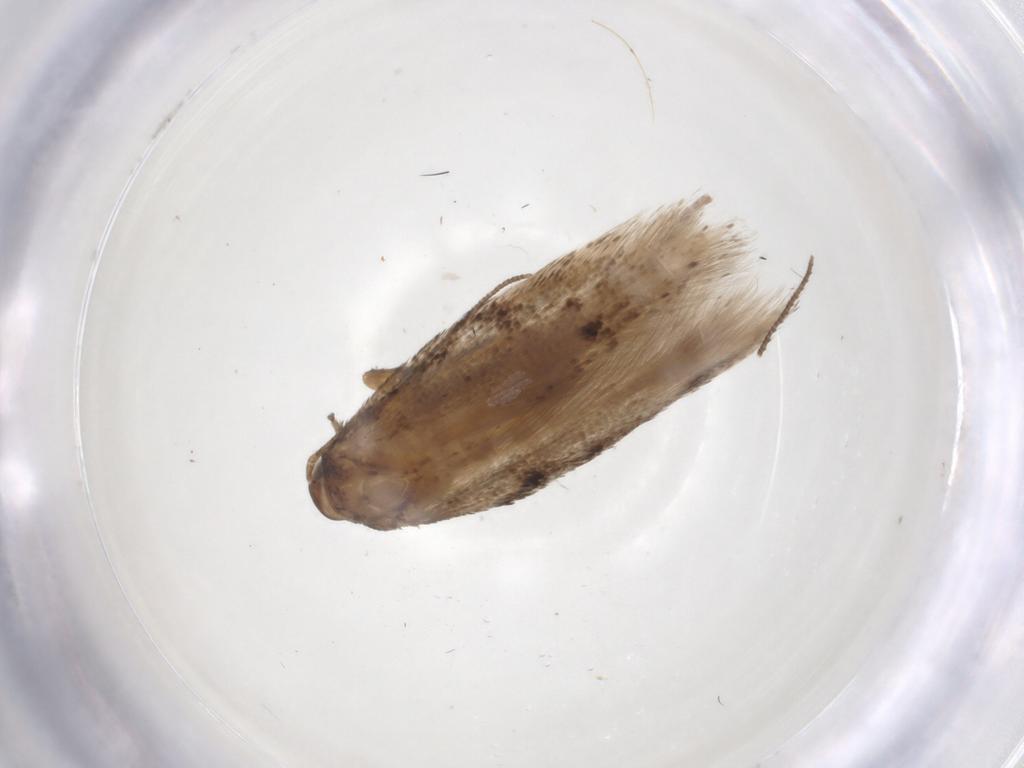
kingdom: Animalia
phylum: Arthropoda
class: Insecta
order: Lepidoptera
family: Gelechiidae
